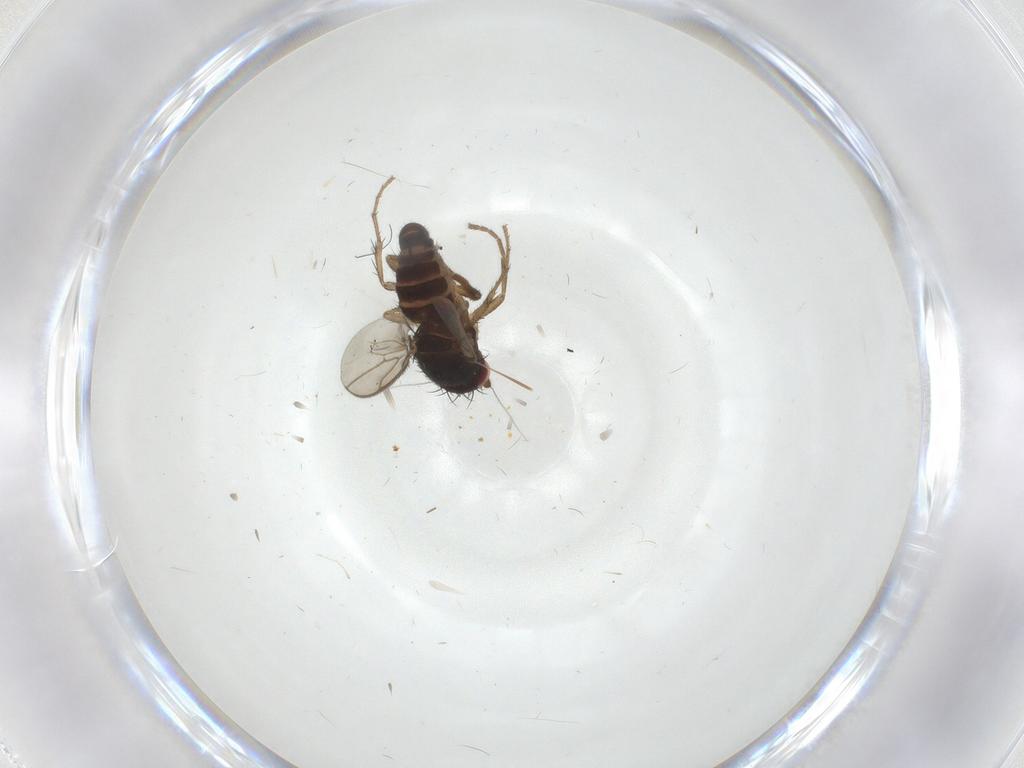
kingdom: Animalia
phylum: Arthropoda
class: Insecta
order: Diptera
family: Sphaeroceridae
